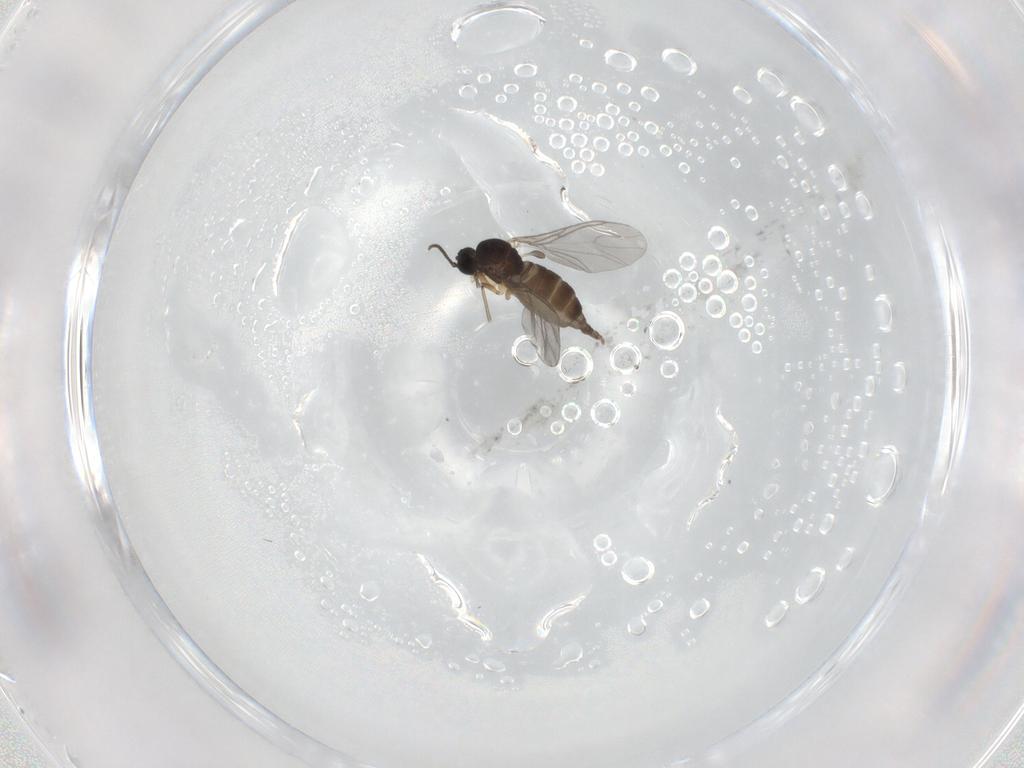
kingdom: Animalia
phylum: Arthropoda
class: Insecta
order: Diptera
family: Sciaridae
